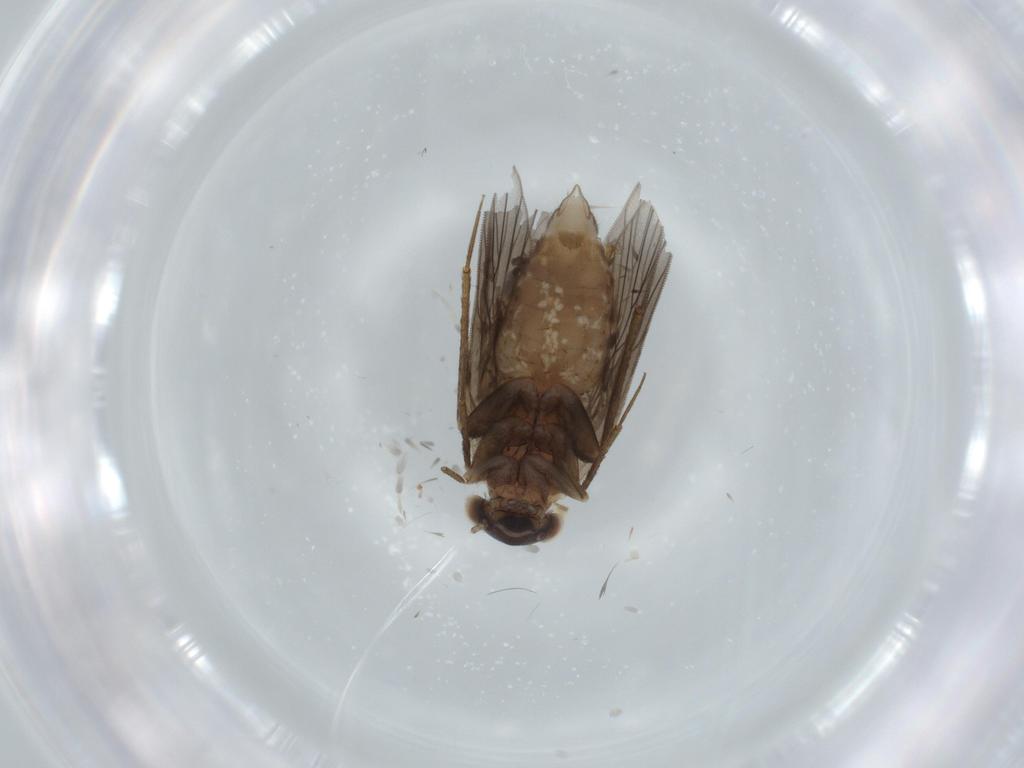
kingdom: Animalia
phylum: Arthropoda
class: Insecta
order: Psocodea
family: Lepidopsocidae
